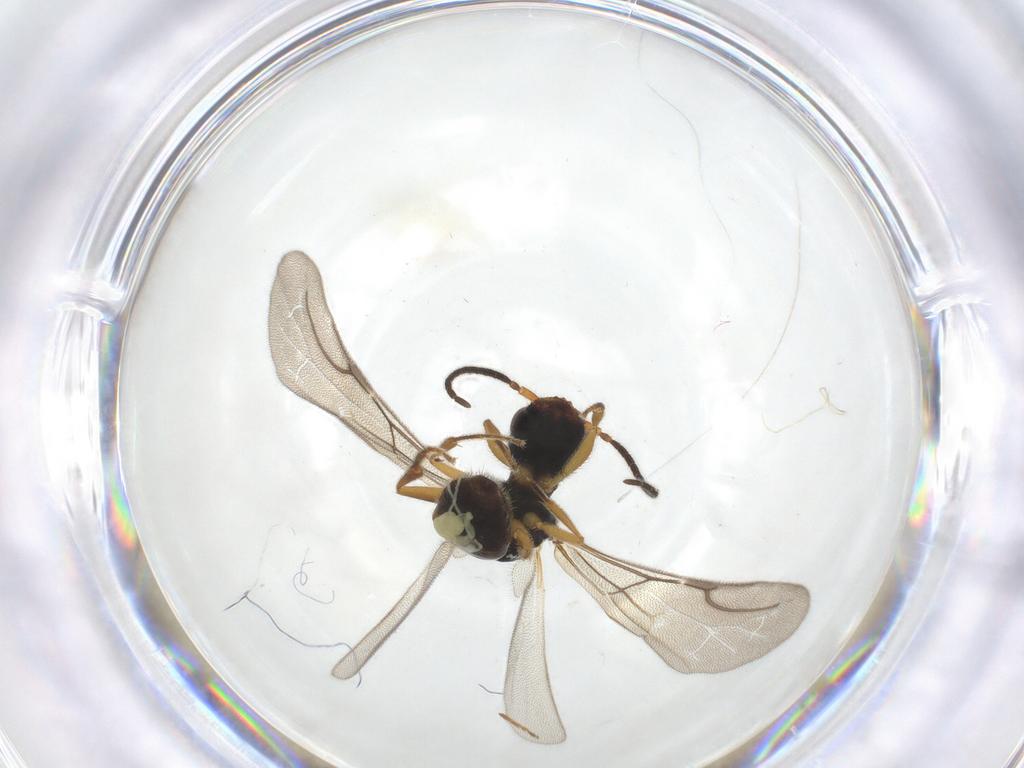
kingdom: Animalia
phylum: Arthropoda
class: Insecta
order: Hymenoptera
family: Bethylidae
